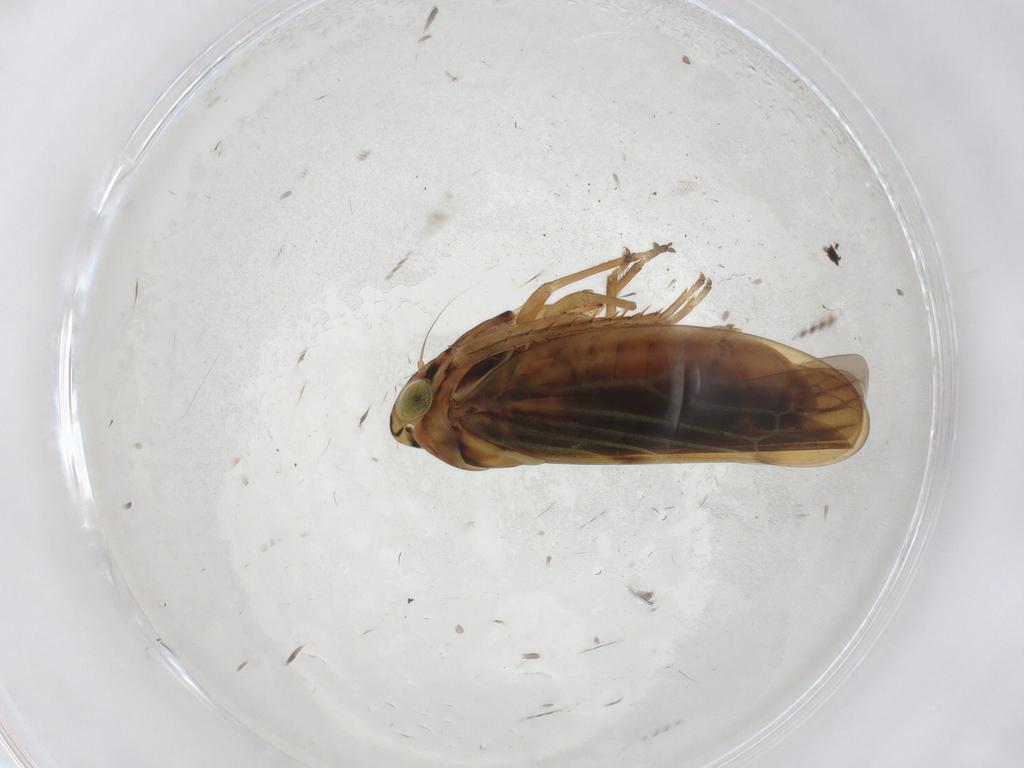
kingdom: Animalia
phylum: Arthropoda
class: Insecta
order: Hemiptera
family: Cicadellidae
